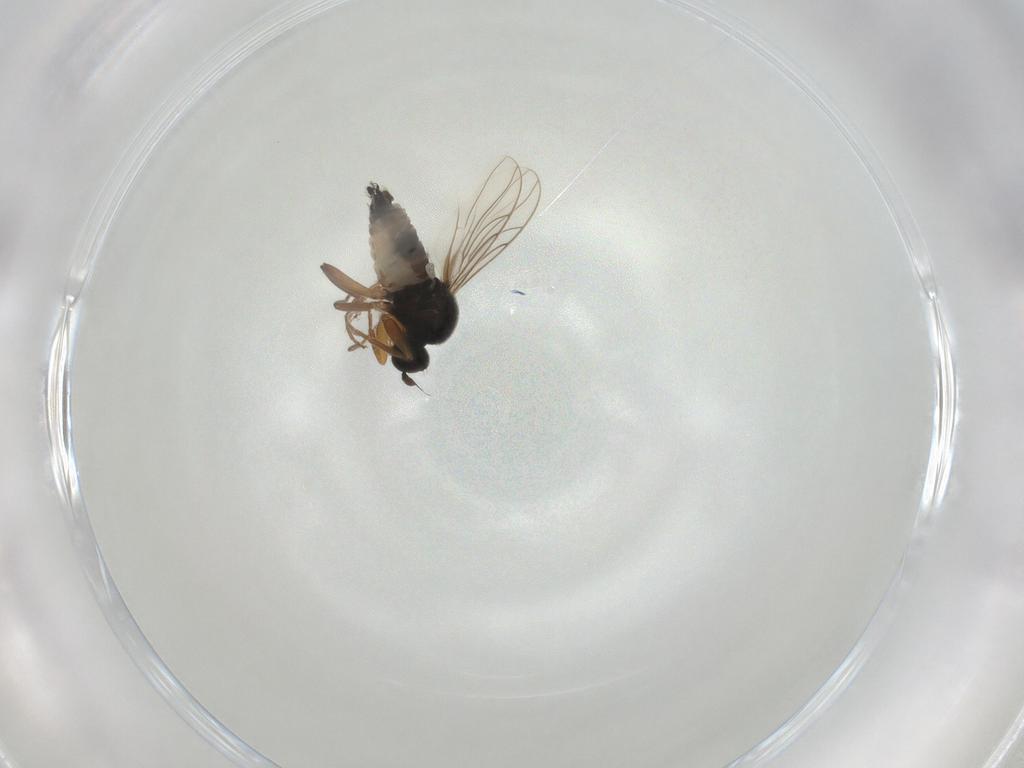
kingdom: Animalia
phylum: Arthropoda
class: Insecta
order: Diptera
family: Hybotidae
